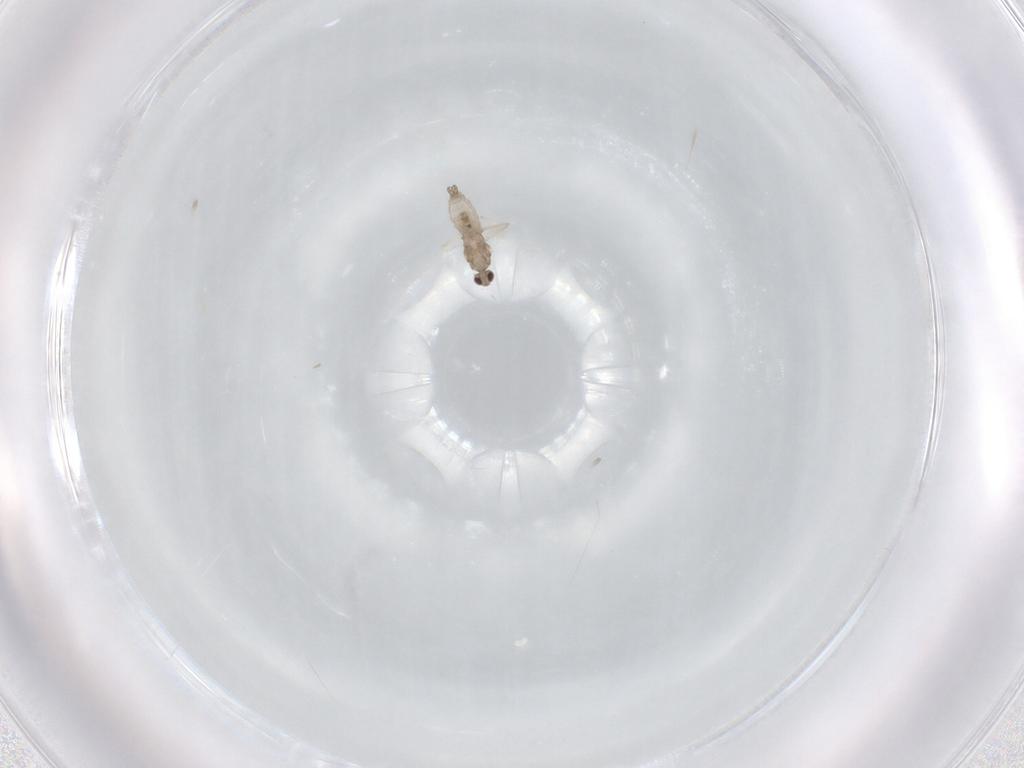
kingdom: Animalia
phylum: Arthropoda
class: Insecta
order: Diptera
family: Cecidomyiidae
